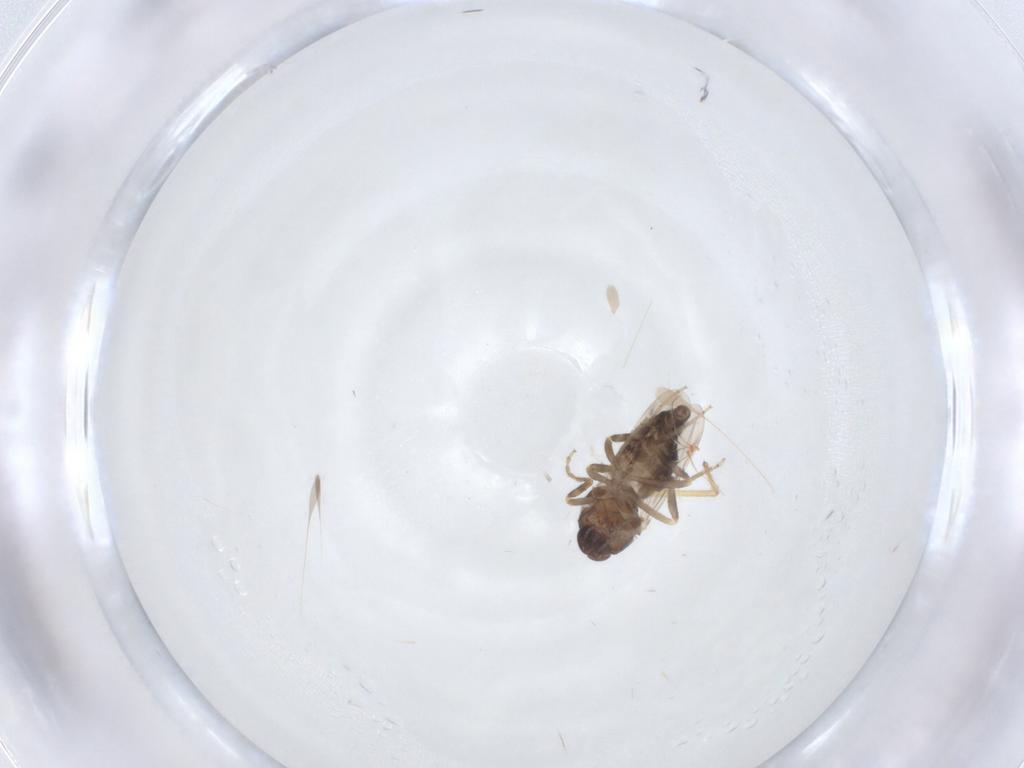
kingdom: Animalia
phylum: Arthropoda
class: Insecta
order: Diptera
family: Ceratopogonidae
